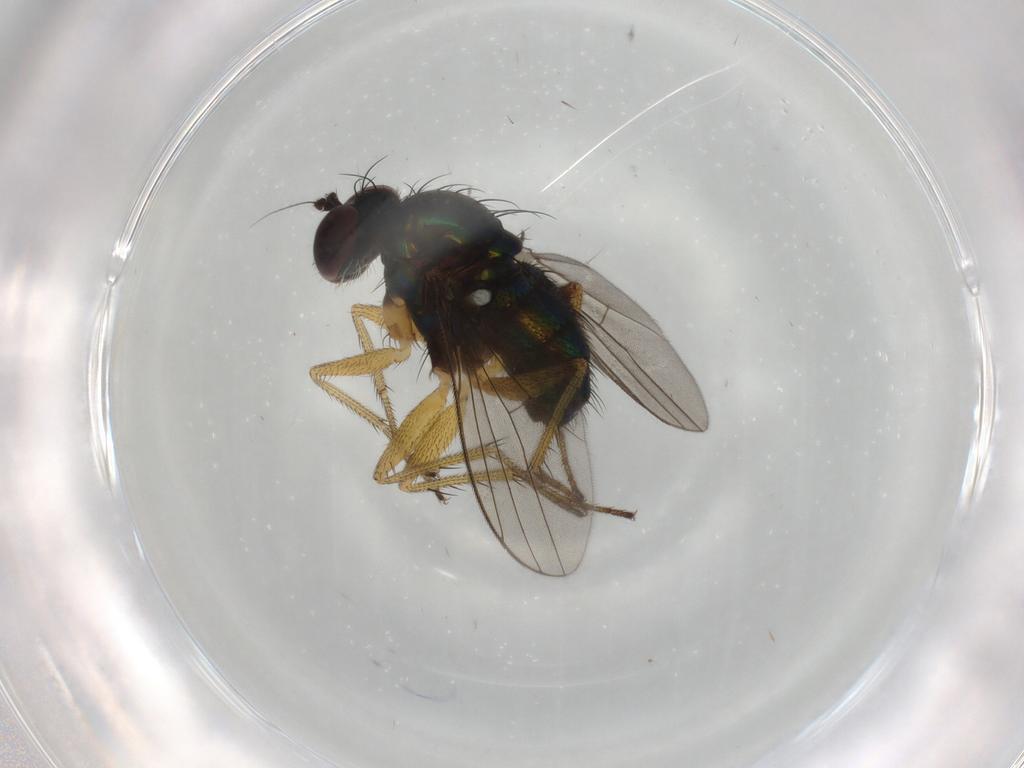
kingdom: Animalia
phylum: Arthropoda
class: Insecta
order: Diptera
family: Dolichopodidae
